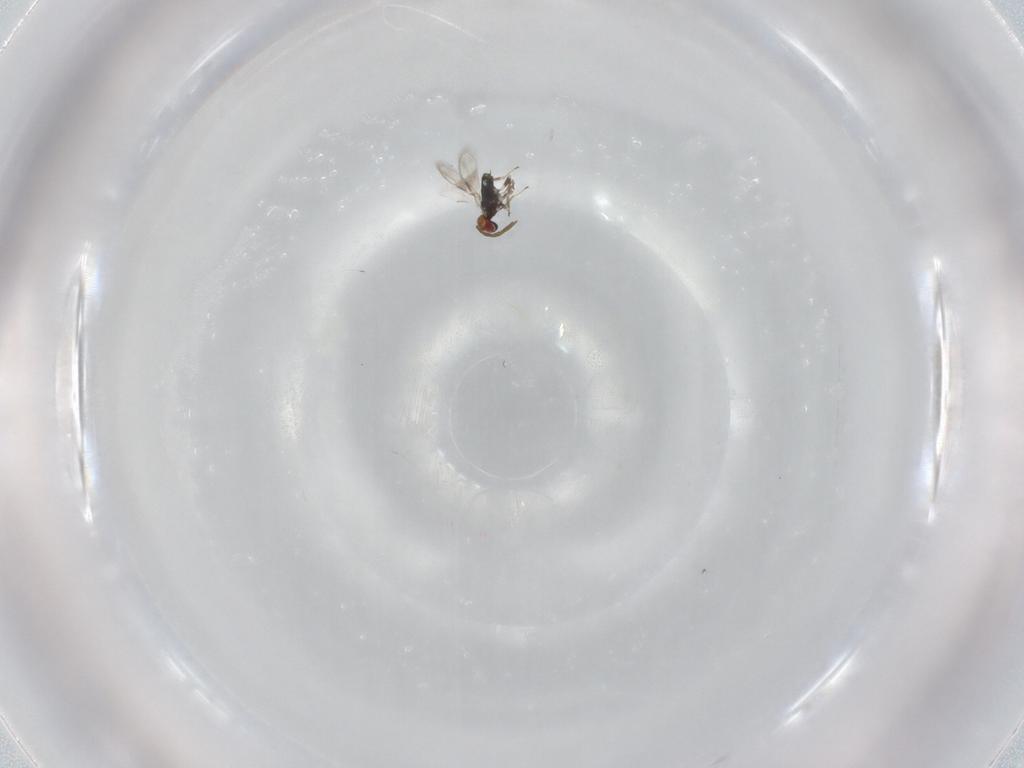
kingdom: Animalia
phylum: Arthropoda
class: Insecta
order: Hymenoptera
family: Azotidae
